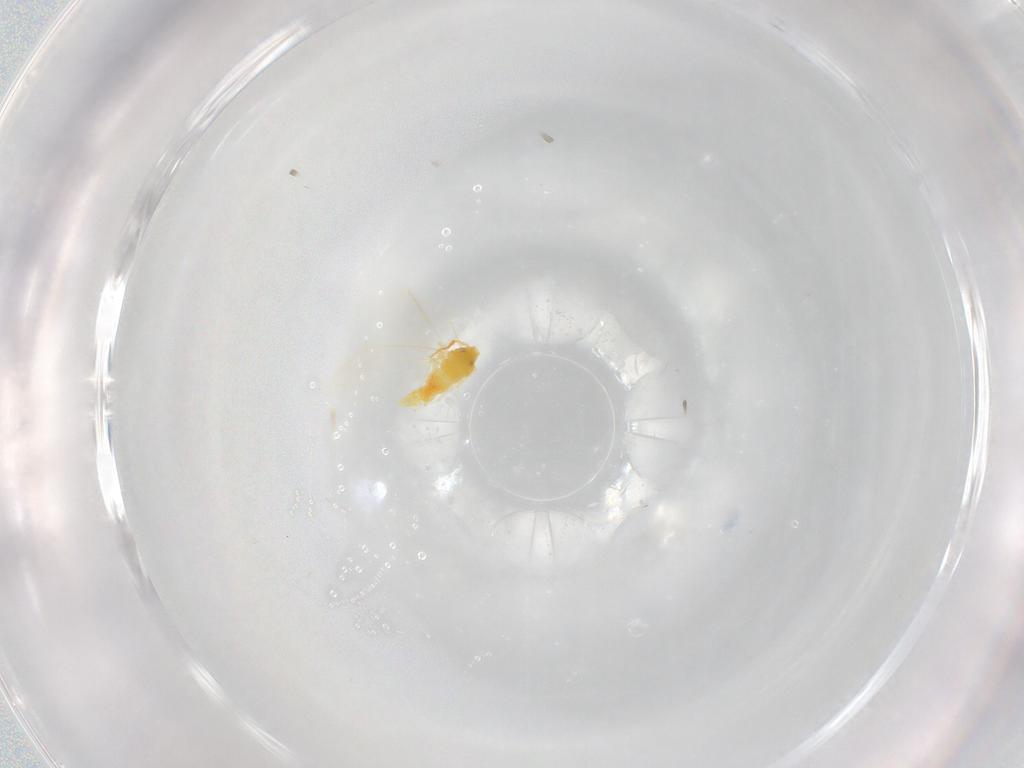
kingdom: Animalia
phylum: Arthropoda
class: Insecta
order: Hemiptera
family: Aleyrodidae
